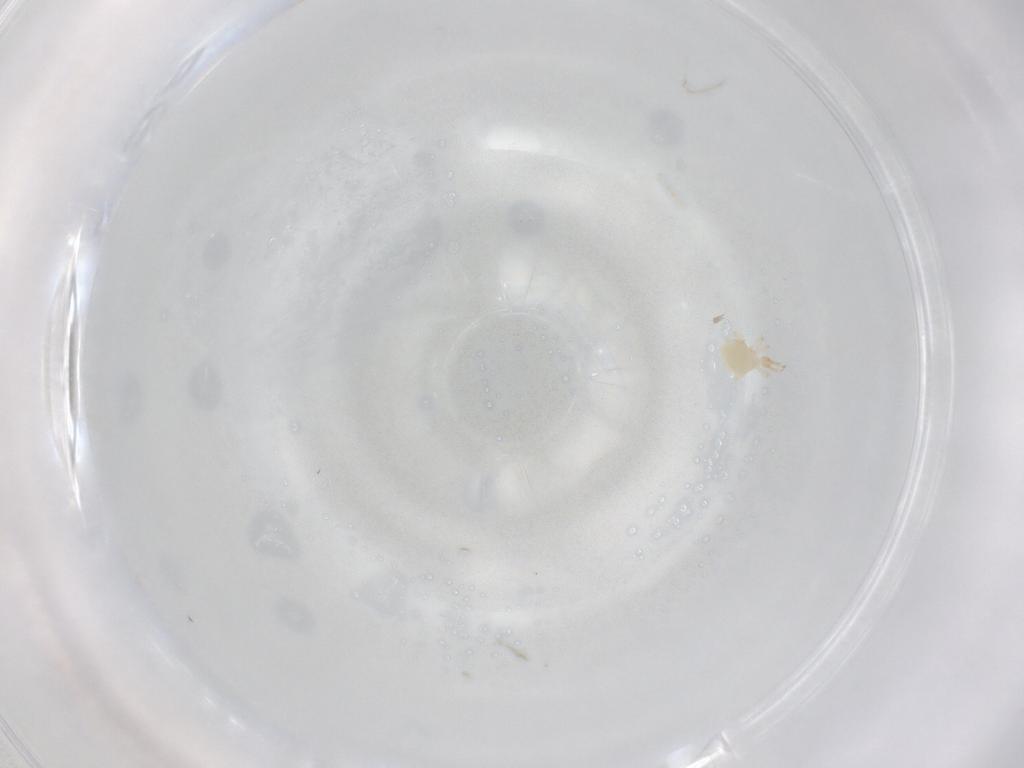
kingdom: Animalia
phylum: Arthropoda
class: Arachnida
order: Trombidiformes
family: Cunaxidae
